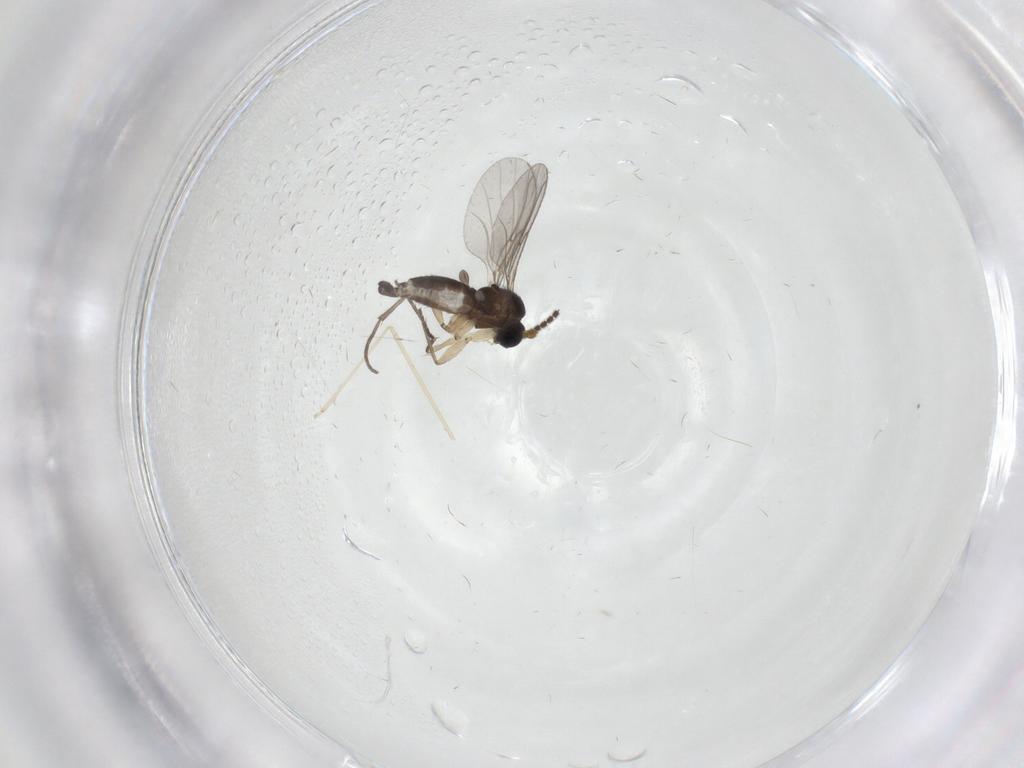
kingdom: Animalia
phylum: Arthropoda
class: Insecta
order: Diptera
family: Sciaridae
